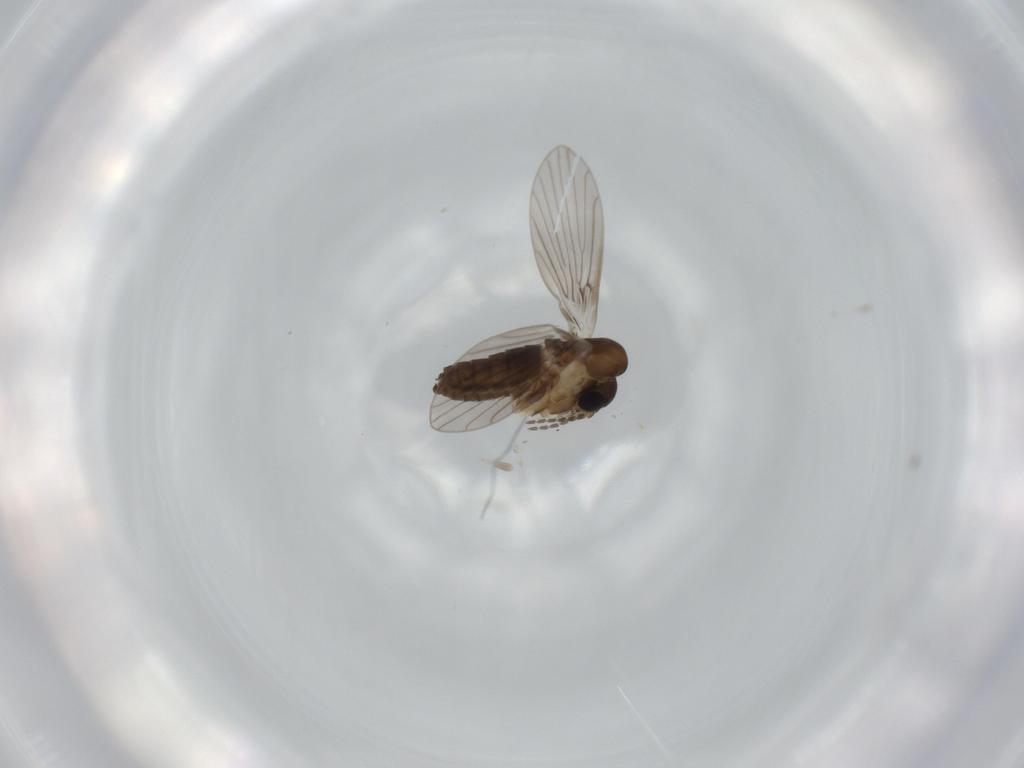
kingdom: Animalia
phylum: Arthropoda
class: Insecta
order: Diptera
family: Psychodidae
